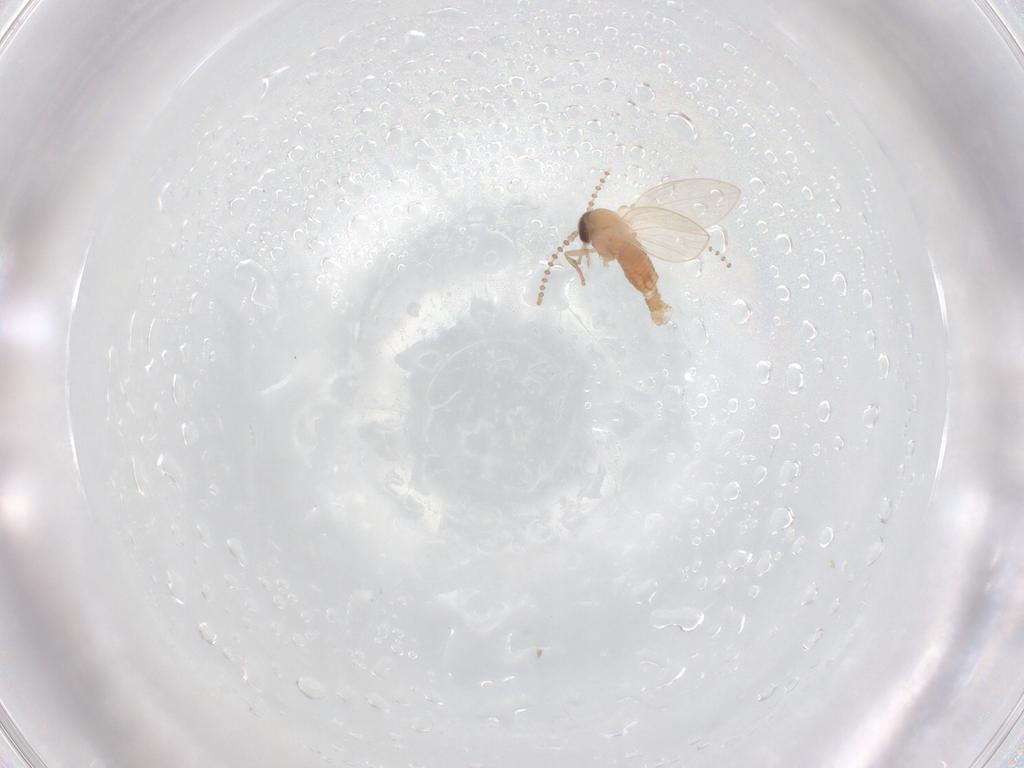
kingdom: Animalia
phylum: Arthropoda
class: Insecta
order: Diptera
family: Psychodidae
